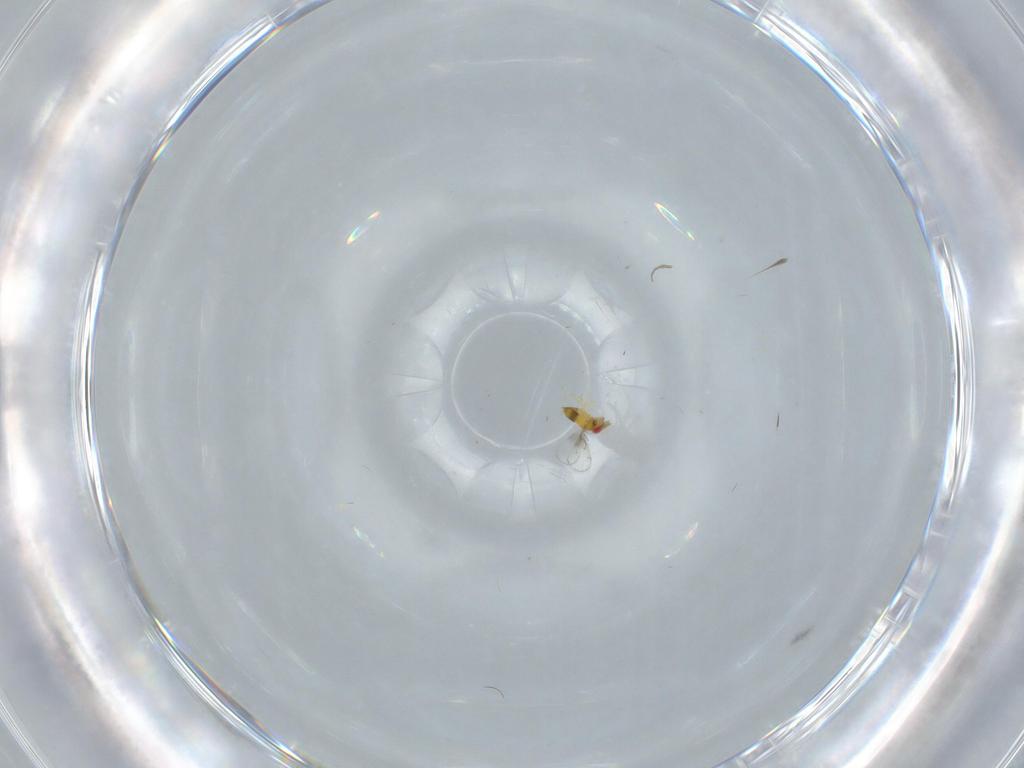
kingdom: Animalia
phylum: Arthropoda
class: Insecta
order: Hymenoptera
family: Trichogrammatidae
